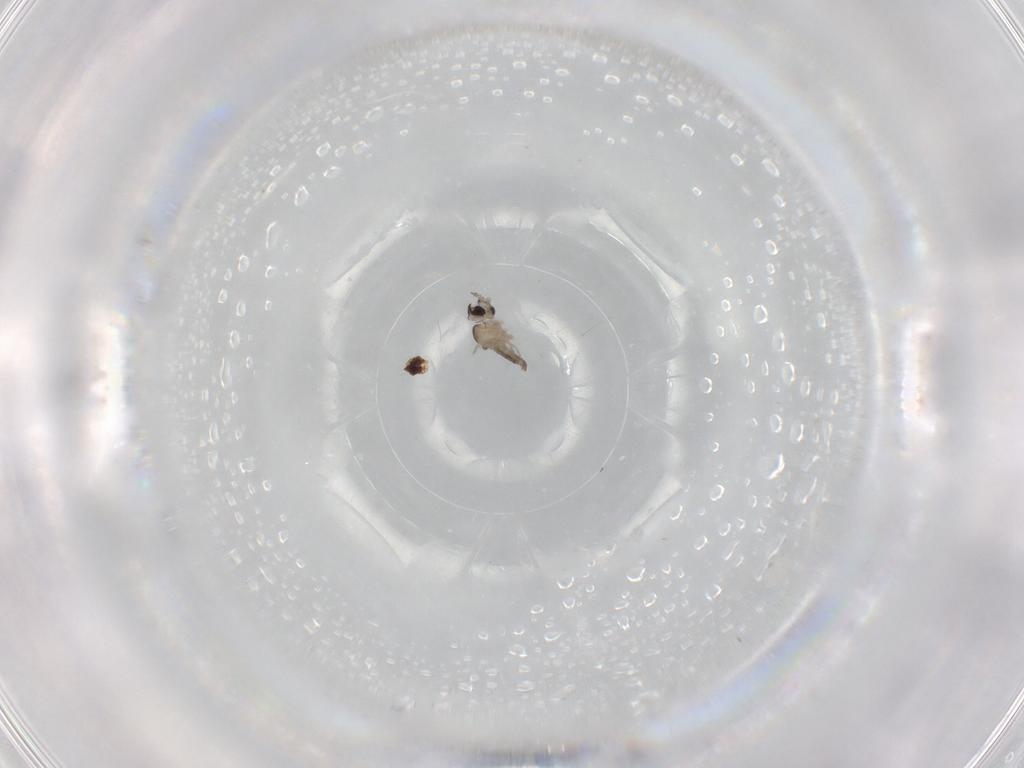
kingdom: Animalia
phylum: Arthropoda
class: Insecta
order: Diptera
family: Cecidomyiidae
